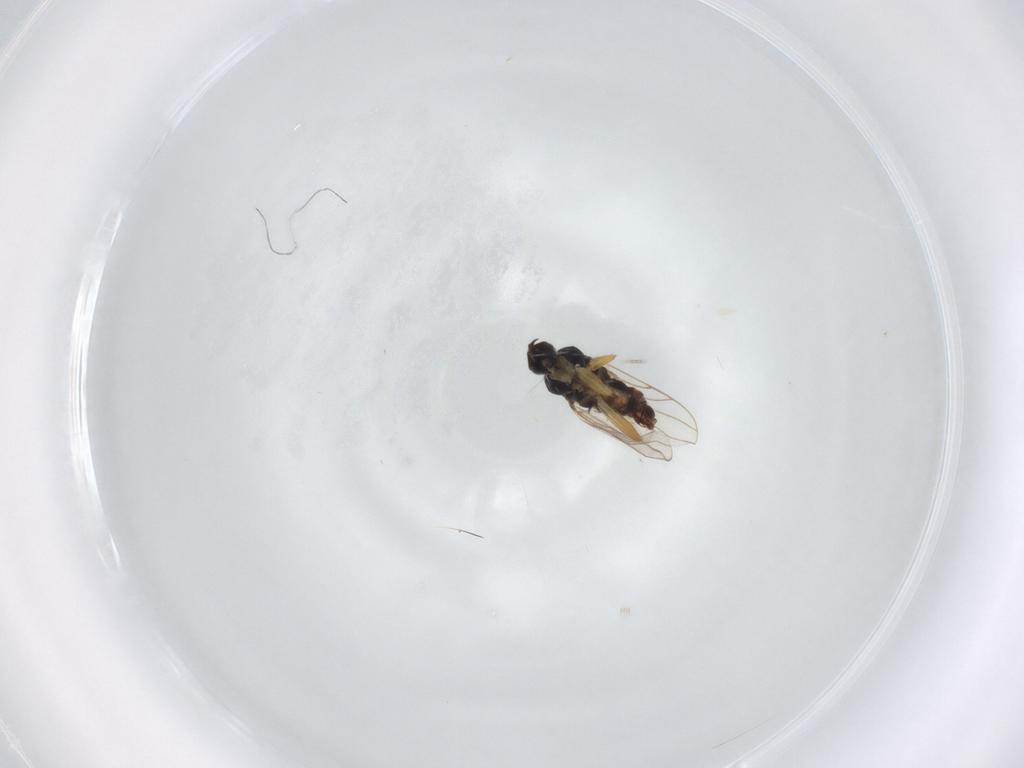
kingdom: Animalia
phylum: Arthropoda
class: Insecta
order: Diptera
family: Hybotidae
